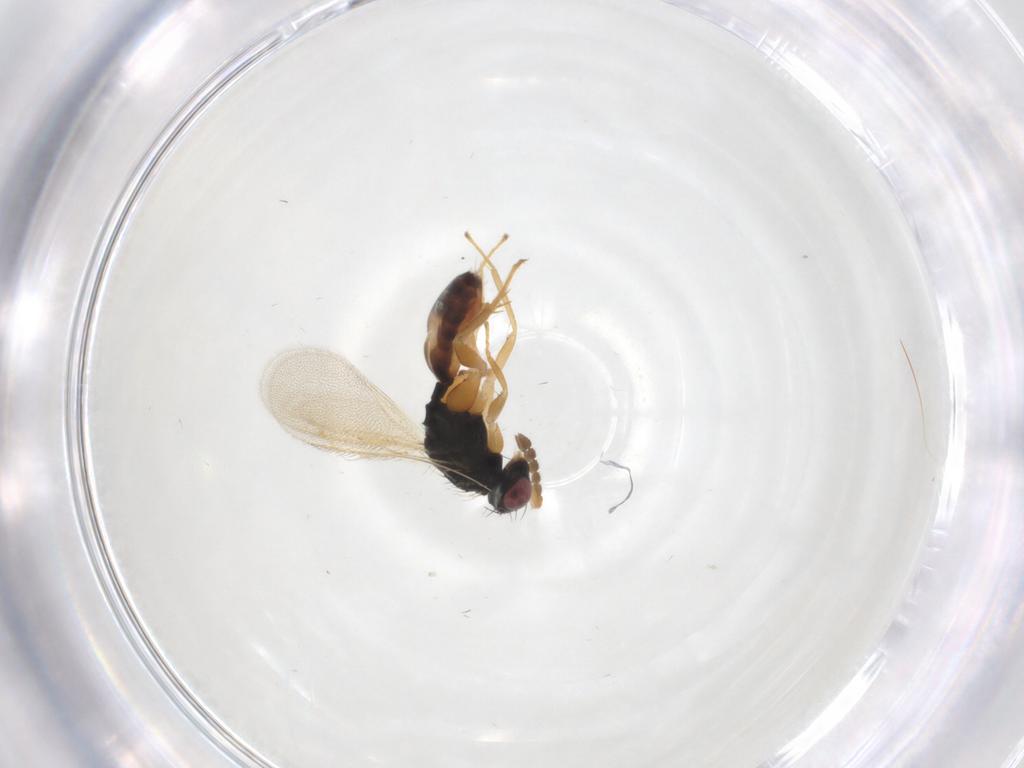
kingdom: Animalia
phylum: Arthropoda
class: Insecta
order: Hymenoptera
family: Eulophidae
